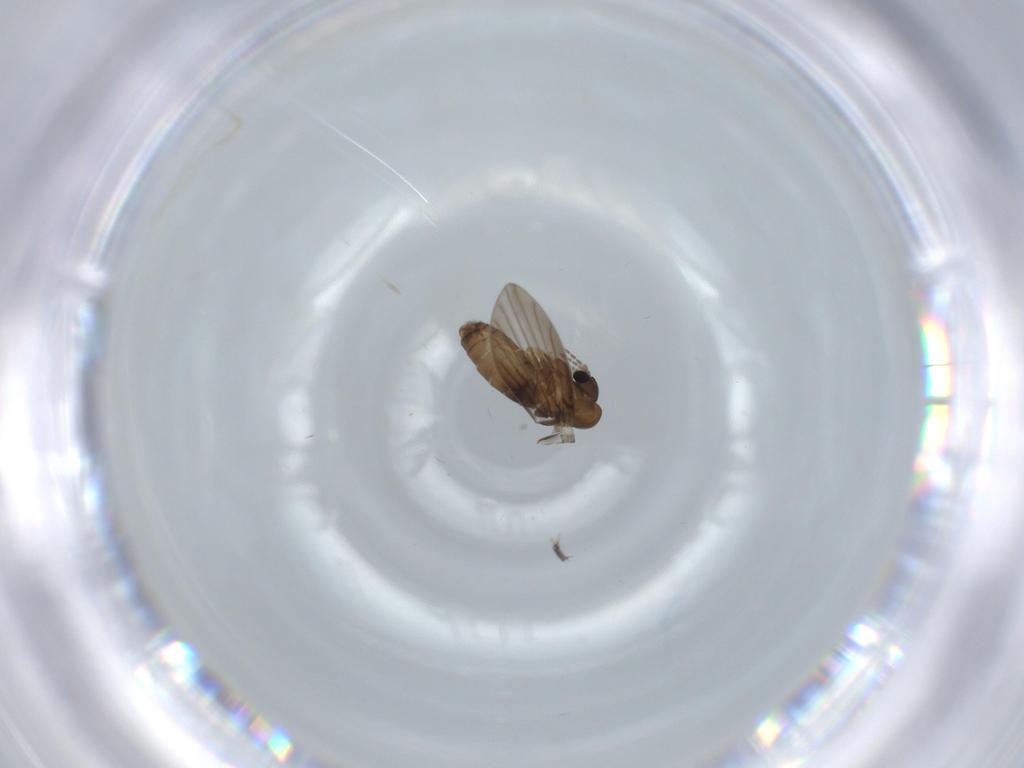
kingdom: Animalia
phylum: Arthropoda
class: Insecta
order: Diptera
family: Psychodidae
